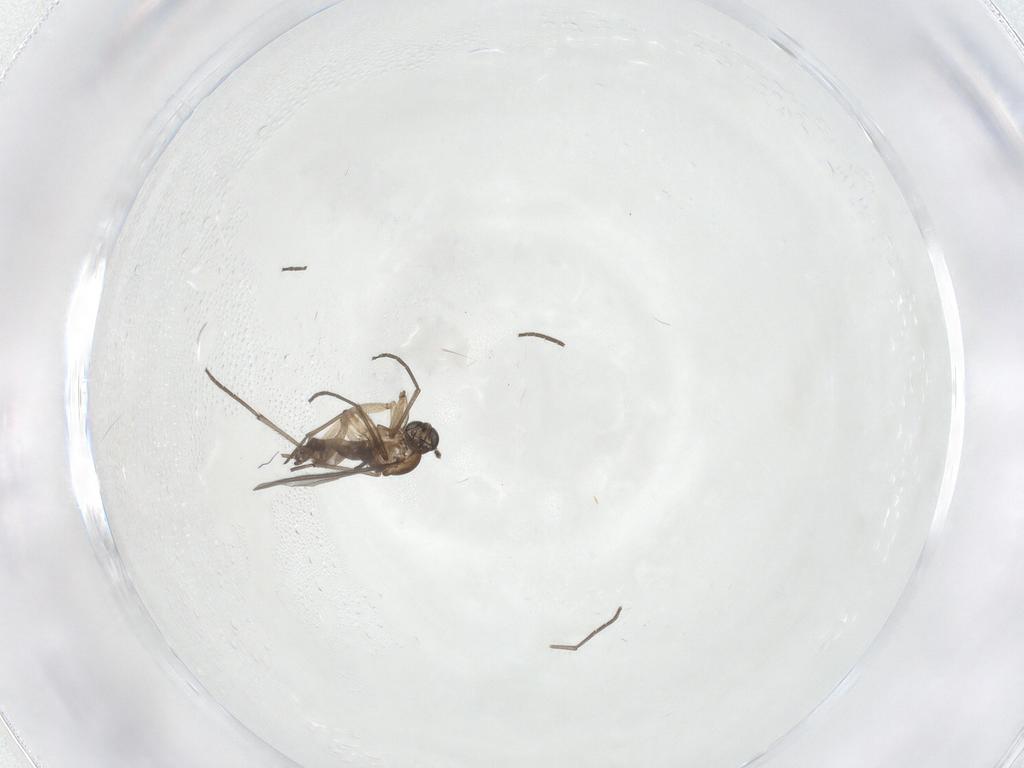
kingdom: Animalia
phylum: Arthropoda
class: Insecta
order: Diptera
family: Sciaridae
